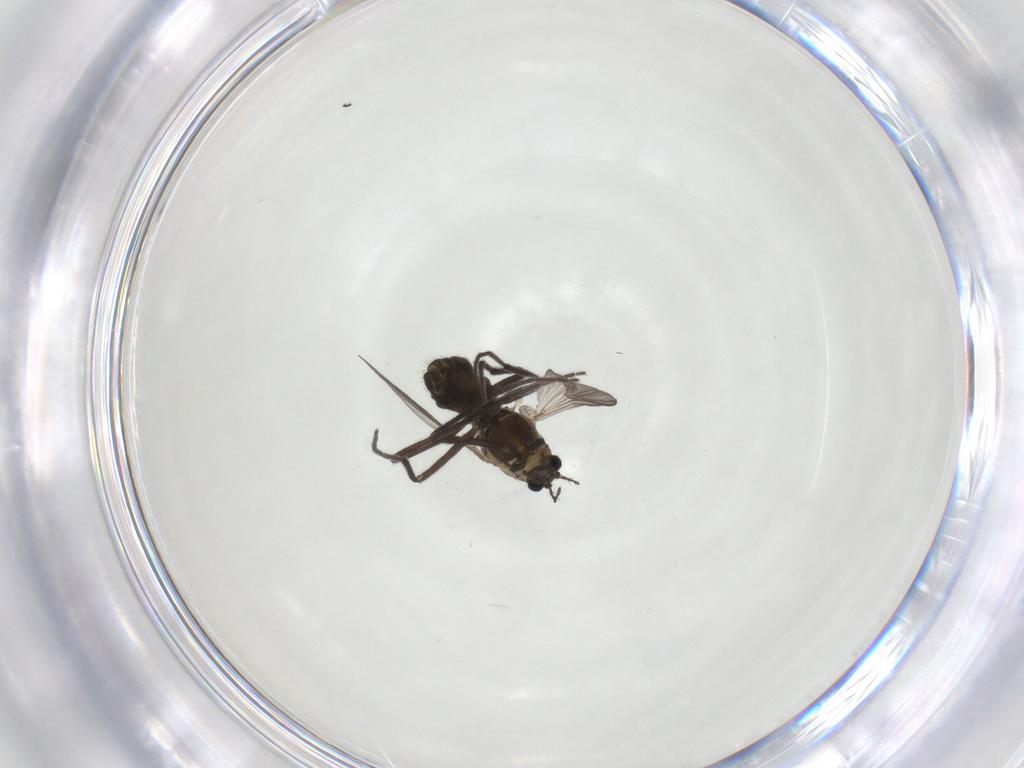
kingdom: Animalia
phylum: Arthropoda
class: Insecta
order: Diptera
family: Chironomidae
